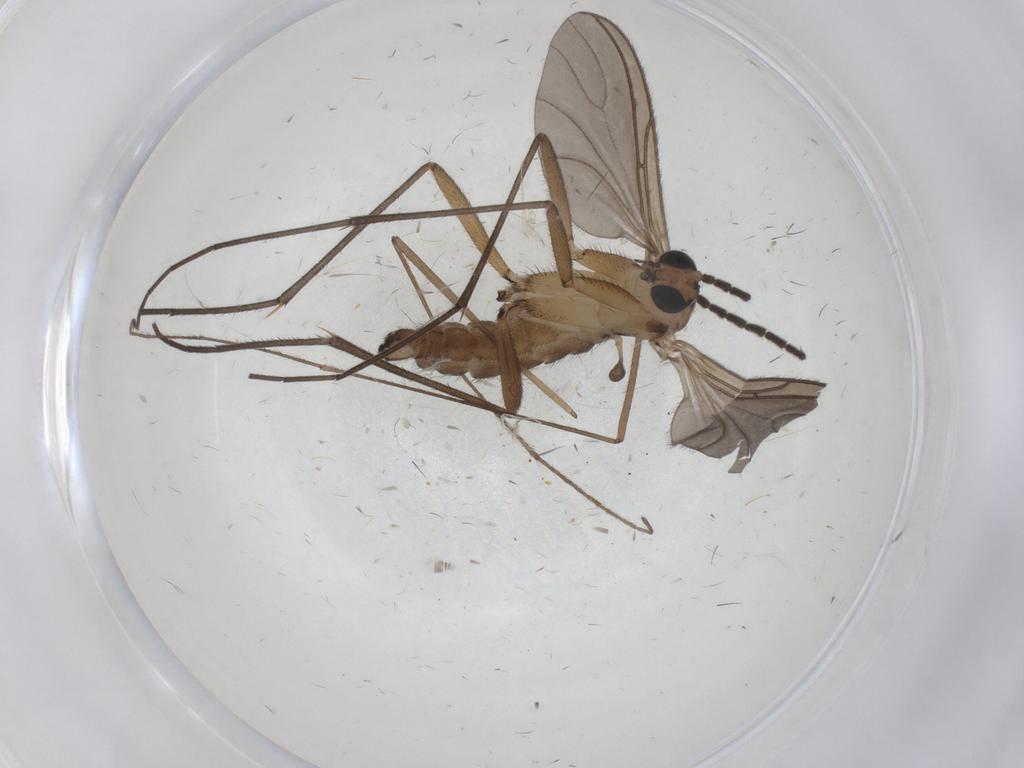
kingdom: Animalia
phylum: Arthropoda
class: Insecta
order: Diptera
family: Limoniidae
